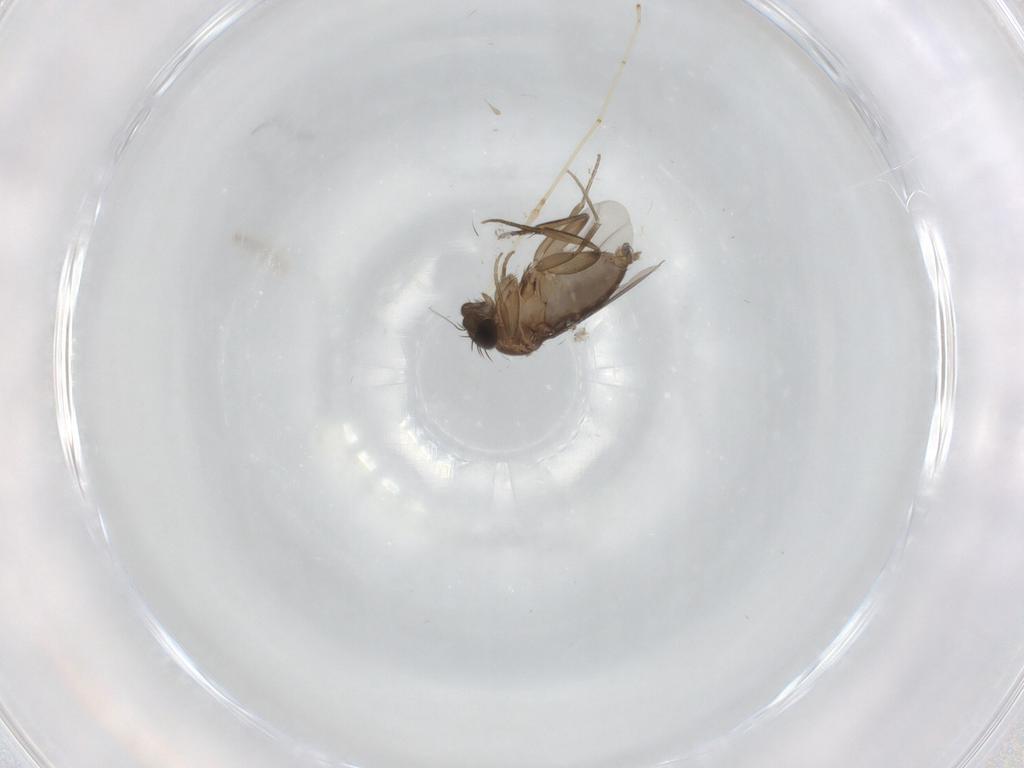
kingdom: Animalia
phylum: Arthropoda
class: Insecta
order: Diptera
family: Phoridae
